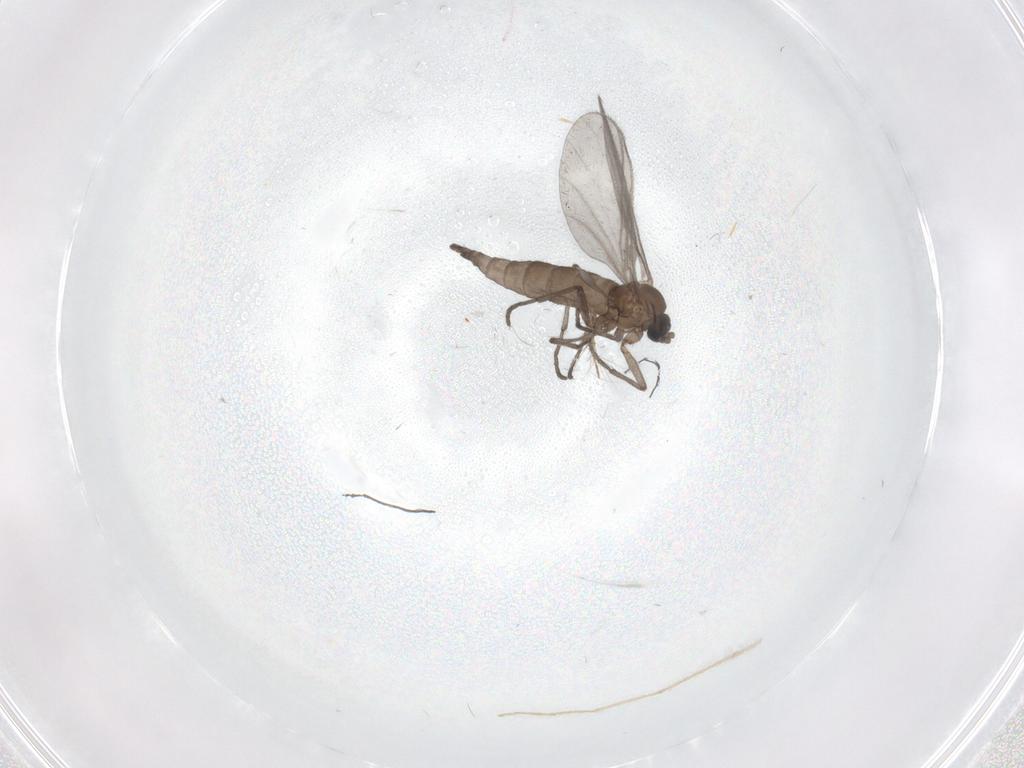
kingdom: Animalia
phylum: Arthropoda
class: Insecta
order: Diptera
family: Sciaridae
